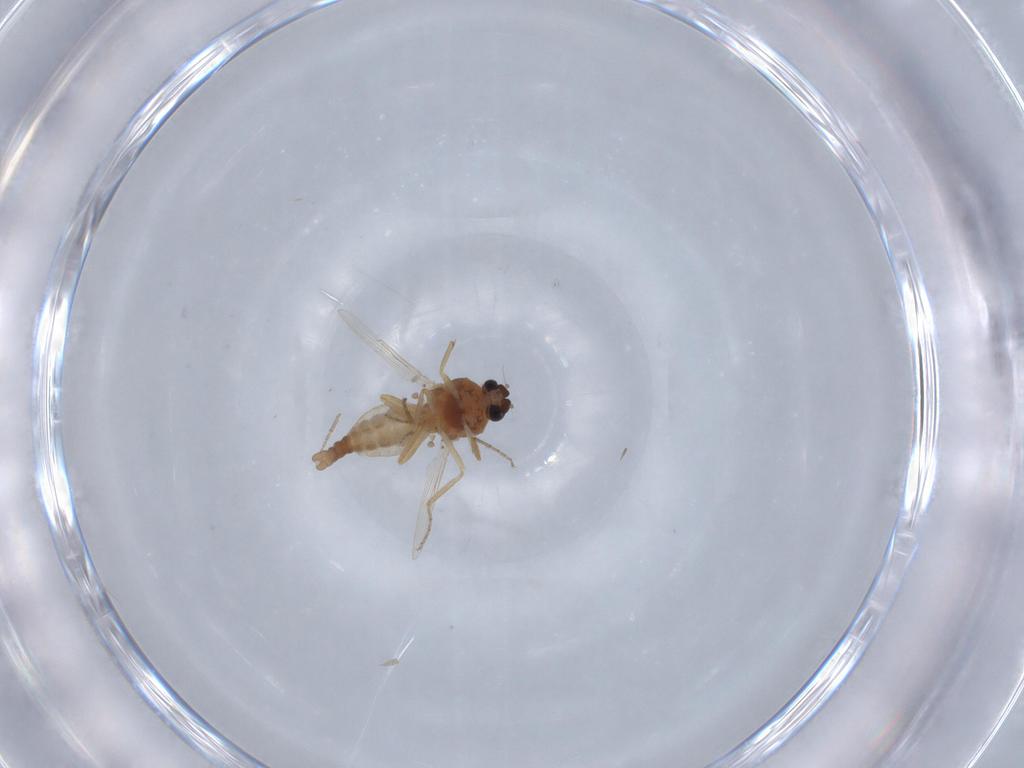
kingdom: Animalia
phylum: Arthropoda
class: Insecta
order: Diptera
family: Ceratopogonidae
